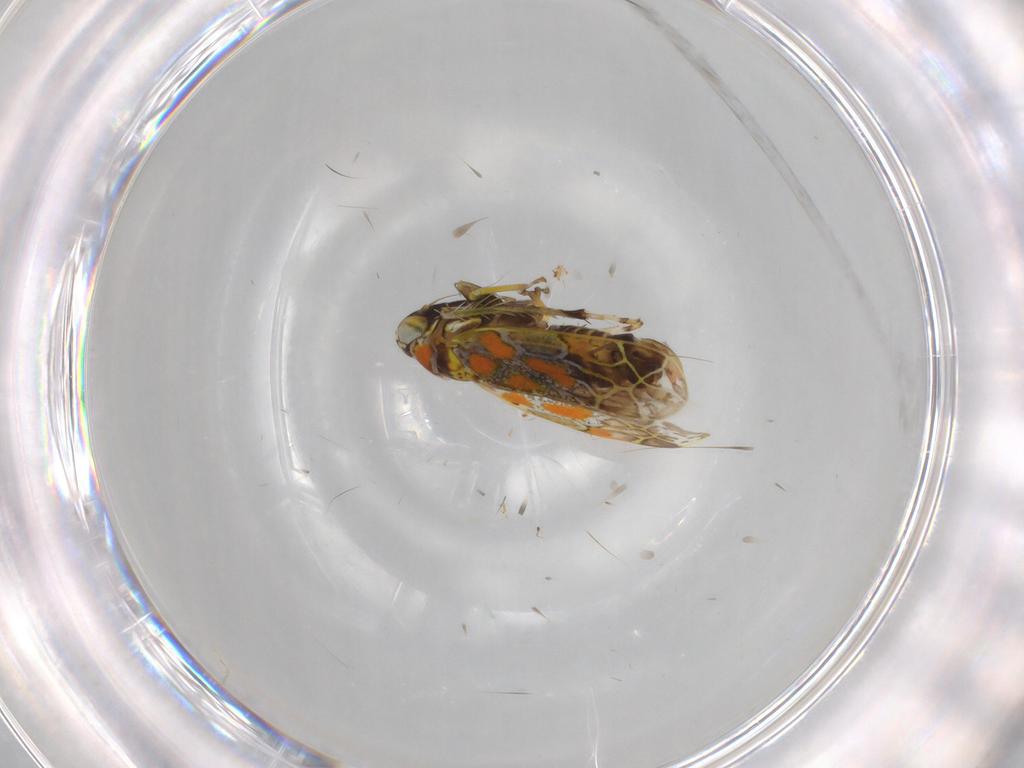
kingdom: Animalia
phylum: Arthropoda
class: Insecta
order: Hemiptera
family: Cicadellidae
